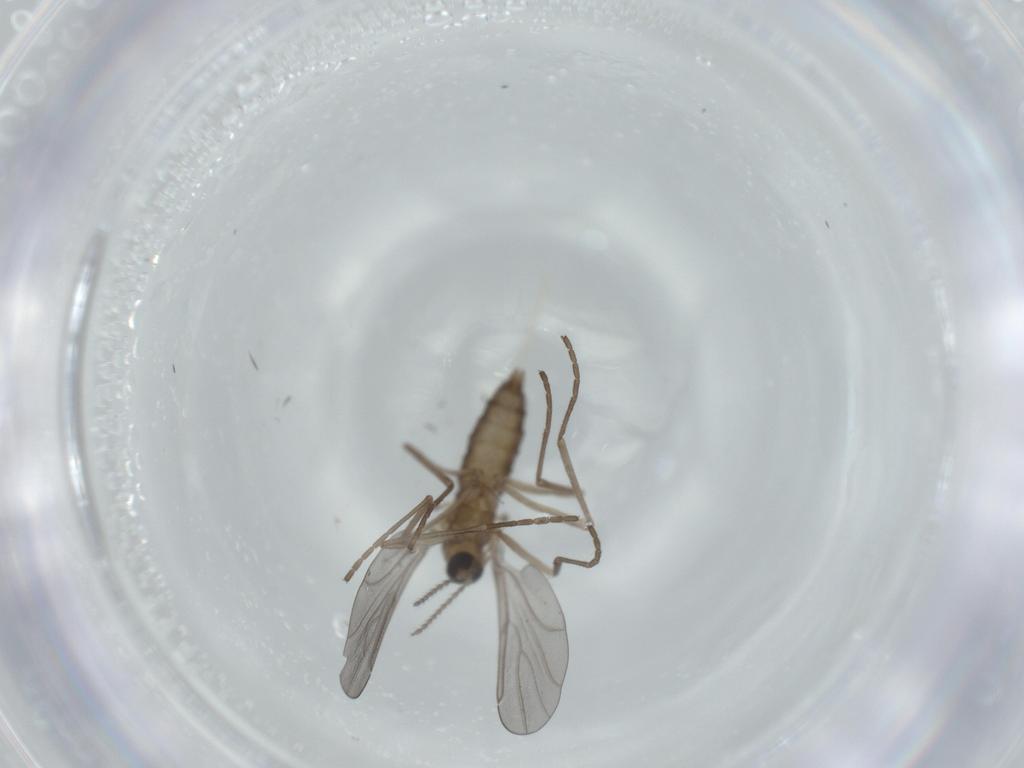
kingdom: Animalia
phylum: Arthropoda
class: Insecta
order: Diptera
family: Cecidomyiidae
